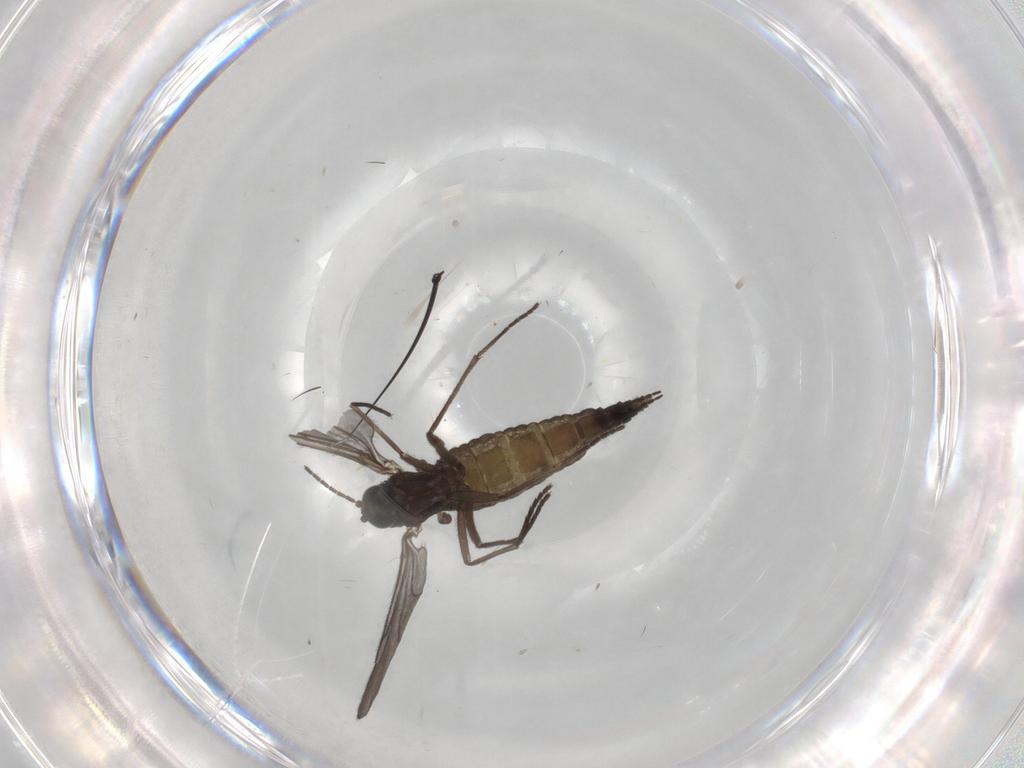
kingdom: Animalia
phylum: Arthropoda
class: Insecta
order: Diptera
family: Sciaridae
